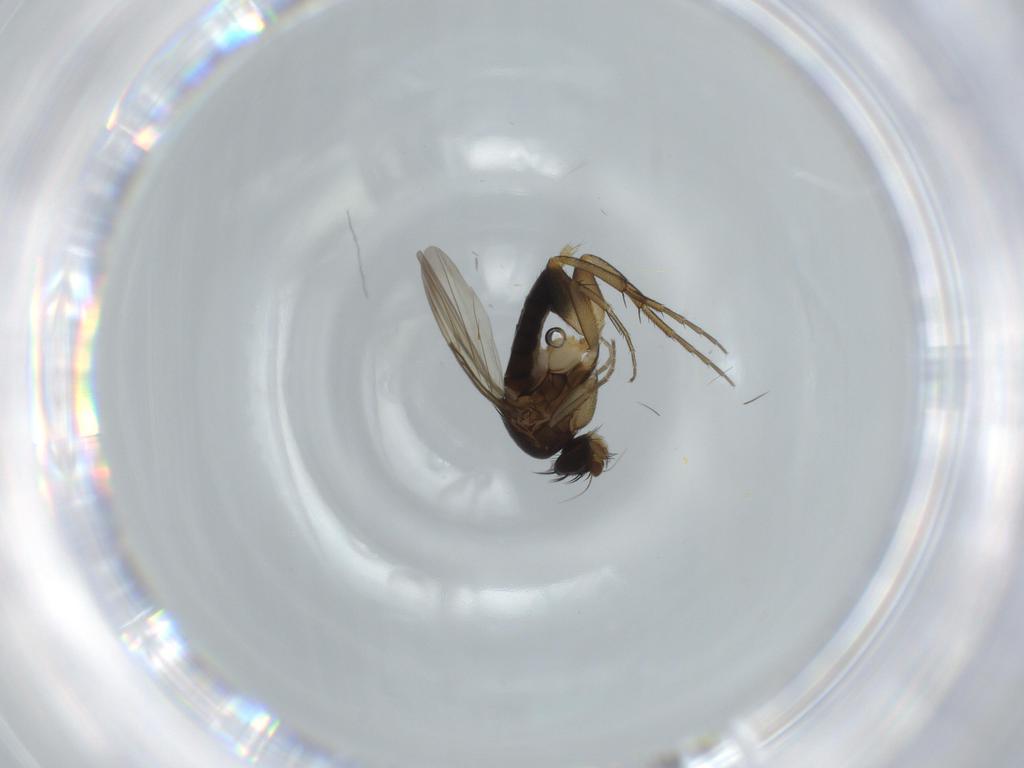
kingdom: Animalia
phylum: Arthropoda
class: Insecta
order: Diptera
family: Phoridae
